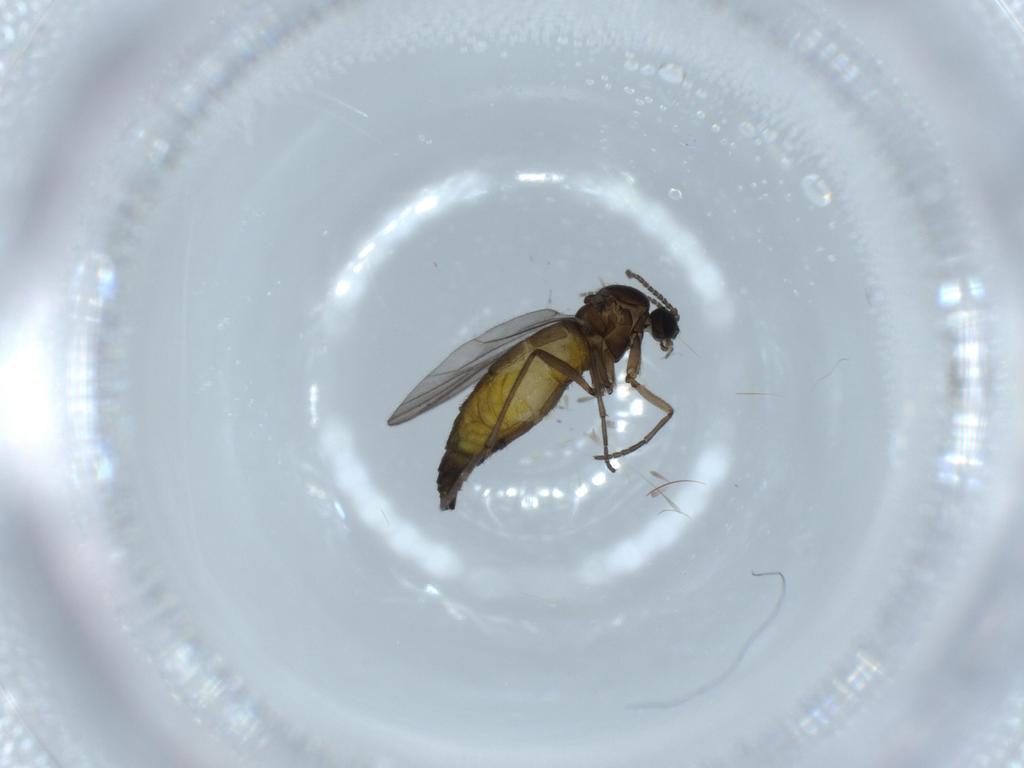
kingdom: Animalia
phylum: Arthropoda
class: Insecta
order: Diptera
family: Sciaridae
